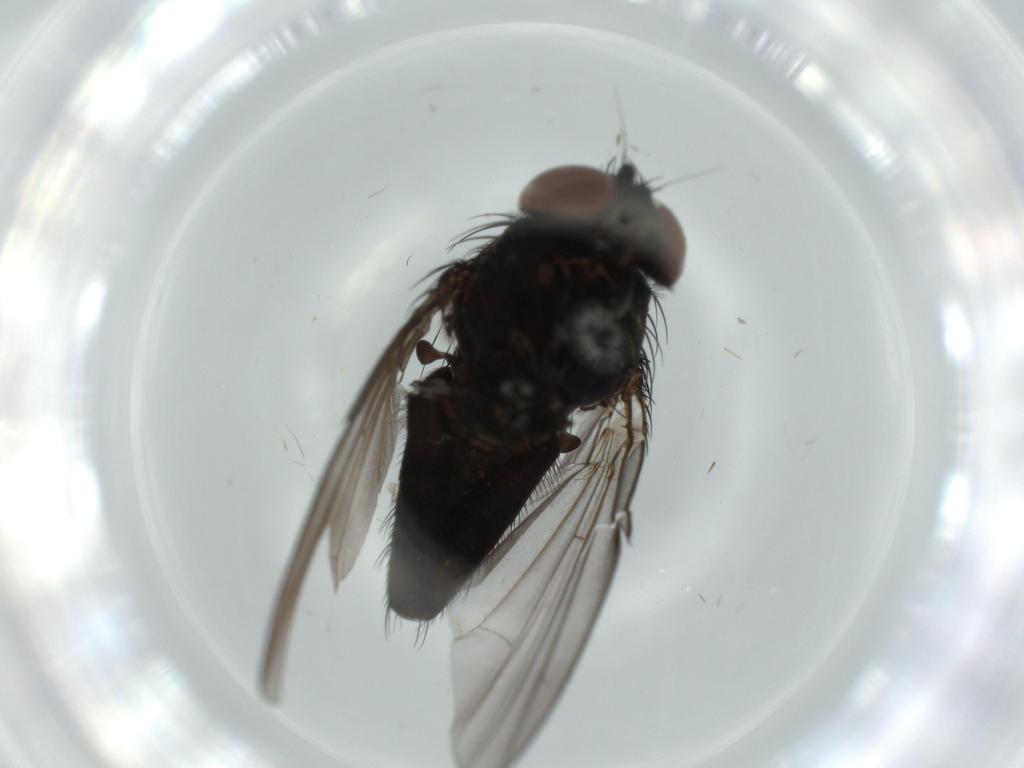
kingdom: Animalia
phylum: Arthropoda
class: Insecta
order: Diptera
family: Milichiidae
